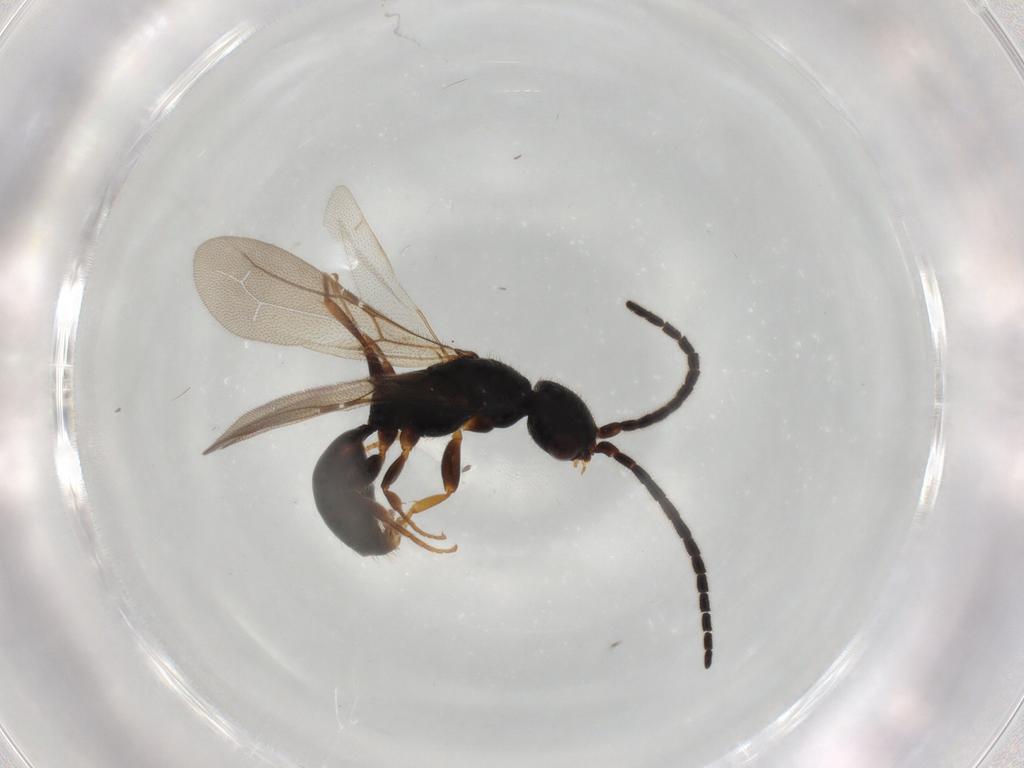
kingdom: Animalia
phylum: Arthropoda
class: Insecta
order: Hymenoptera
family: Bethylidae
